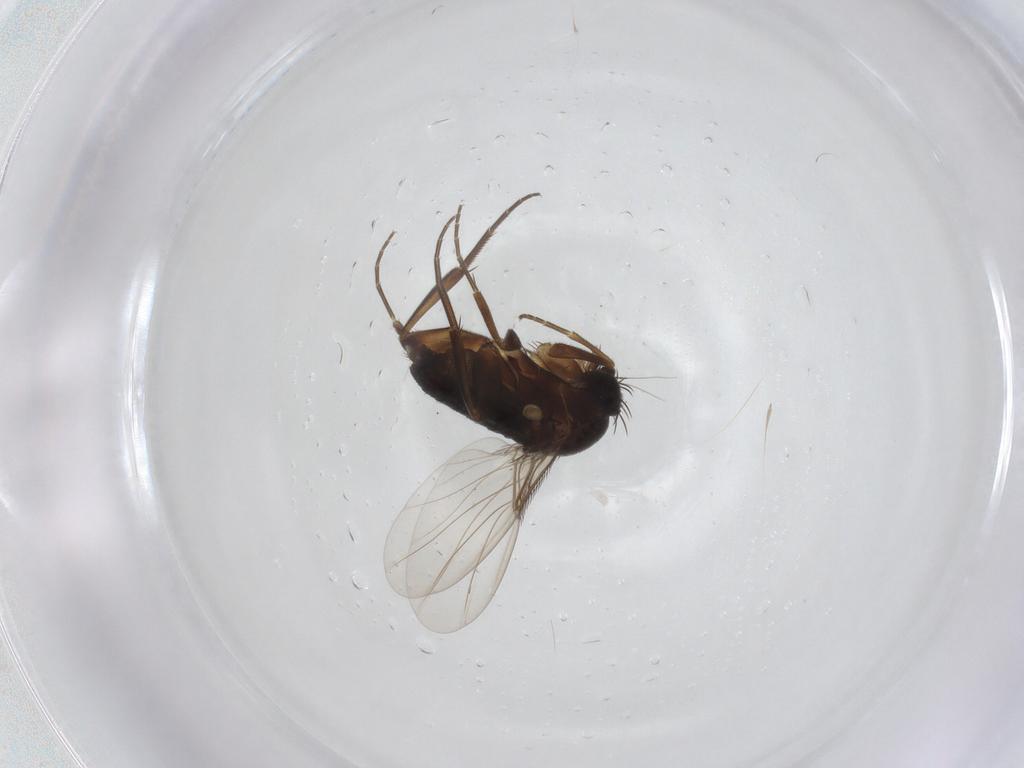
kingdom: Animalia
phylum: Arthropoda
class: Insecta
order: Diptera
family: Phoridae
